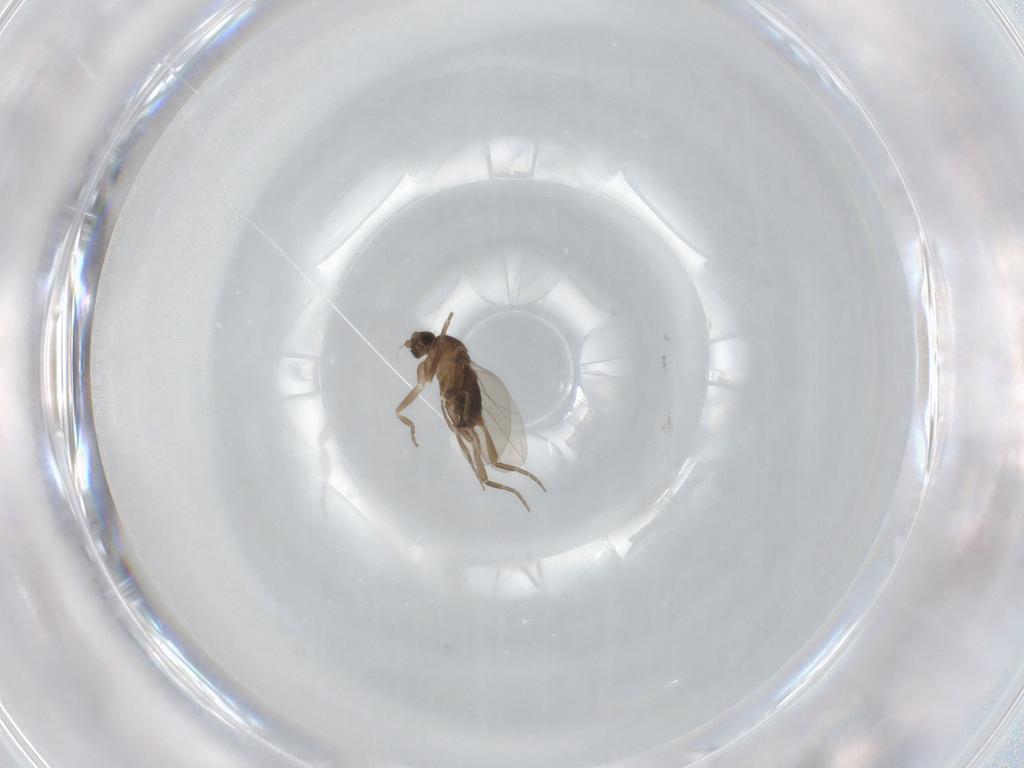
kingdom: Animalia
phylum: Arthropoda
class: Insecta
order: Diptera
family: Phoridae
